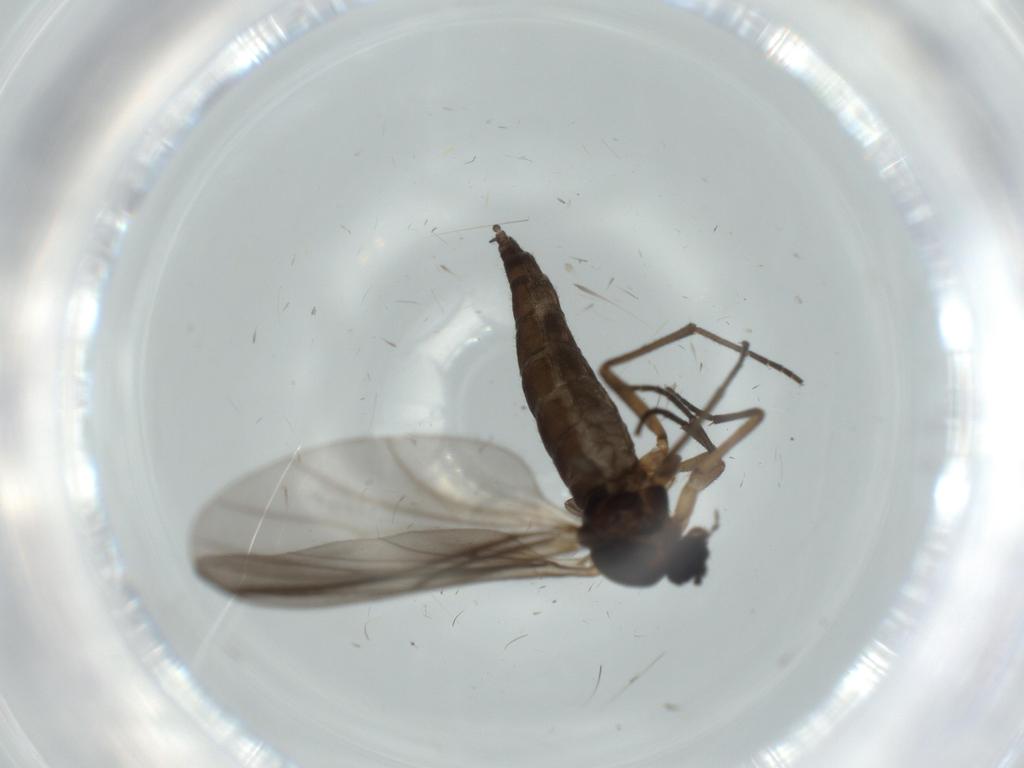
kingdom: Animalia
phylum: Arthropoda
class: Insecta
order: Diptera
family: Sciaridae
